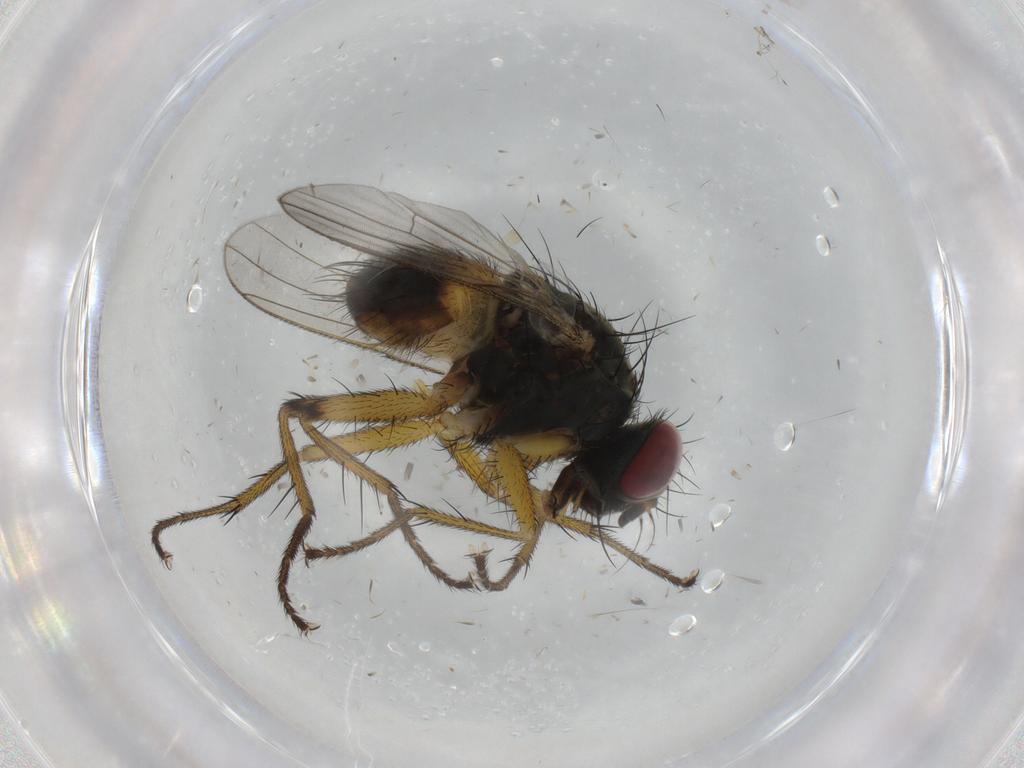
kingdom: Animalia
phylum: Arthropoda
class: Insecta
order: Diptera
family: Muscidae
